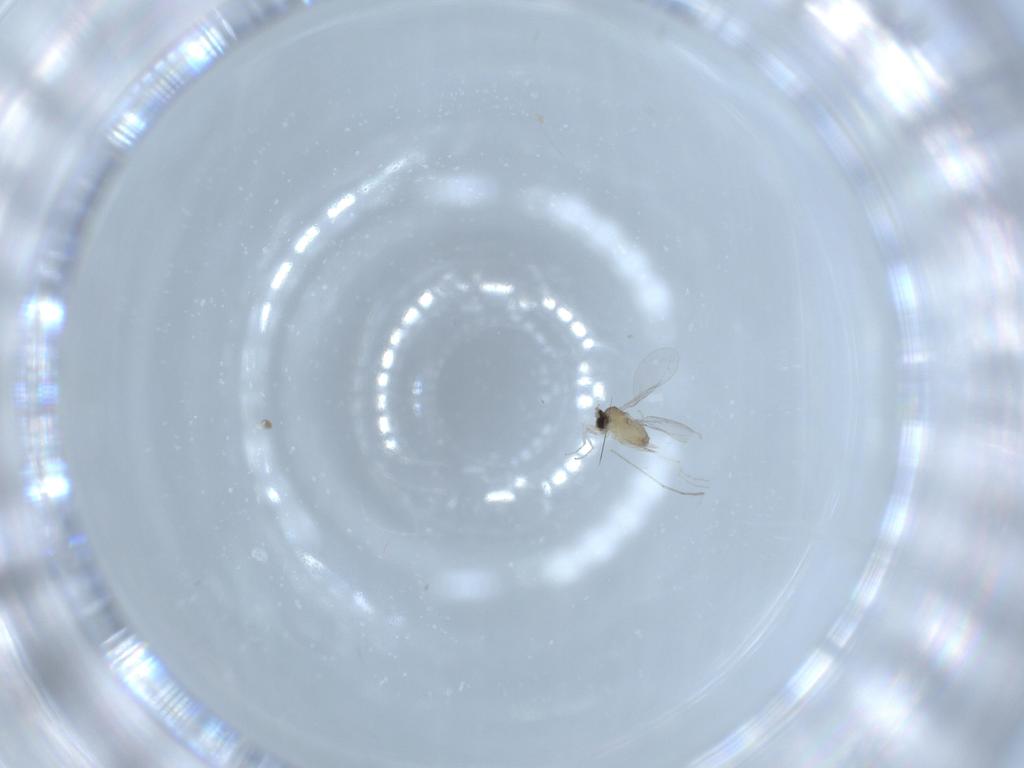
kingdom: Animalia
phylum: Arthropoda
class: Insecta
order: Diptera
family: Cecidomyiidae
